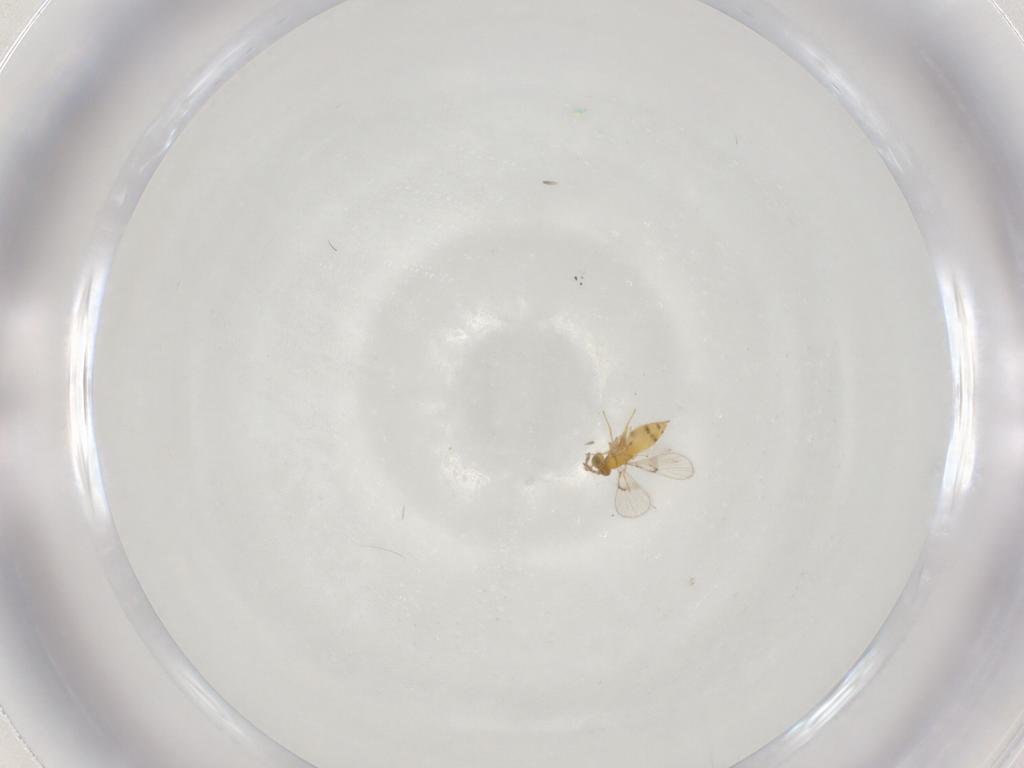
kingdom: Animalia
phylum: Arthropoda
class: Insecta
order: Hymenoptera
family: Trichogrammatidae
